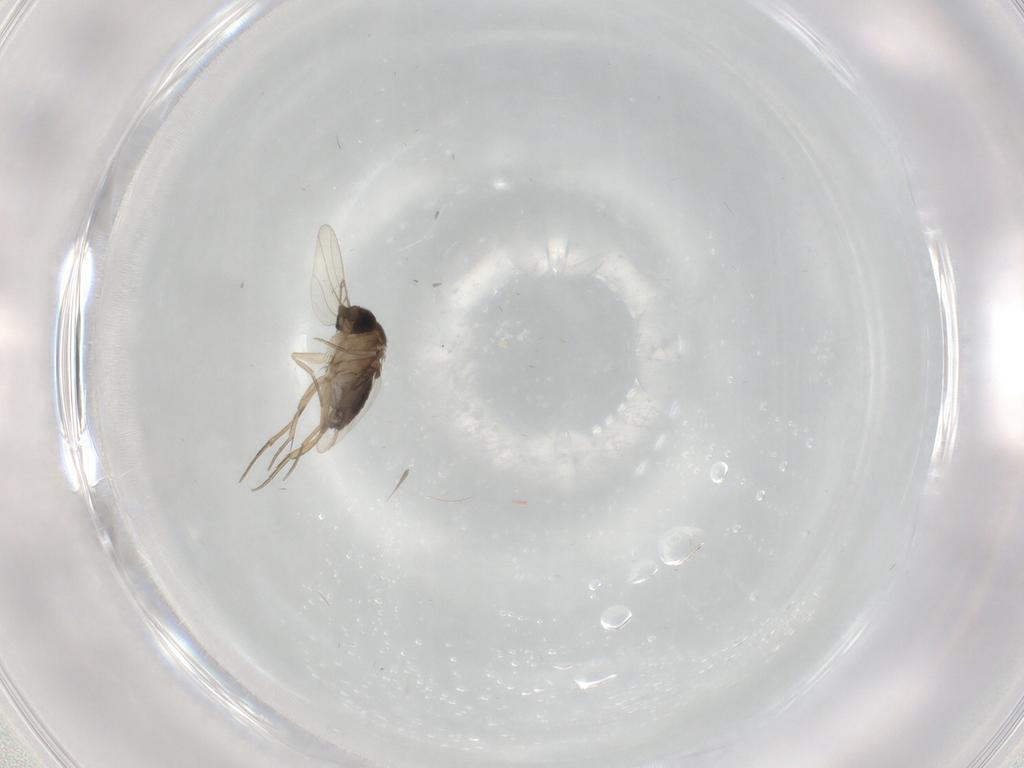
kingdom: Animalia
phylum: Arthropoda
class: Insecta
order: Diptera
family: Phoridae
